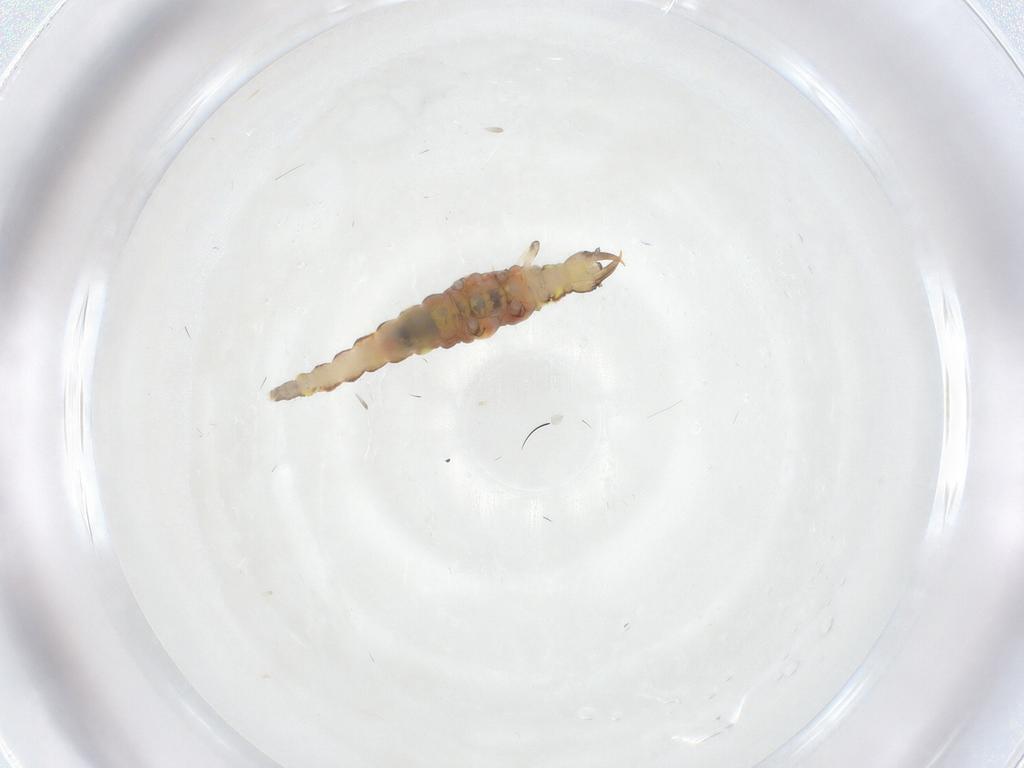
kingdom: Animalia
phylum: Arthropoda
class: Insecta
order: Neuroptera
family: Hemerobiidae
